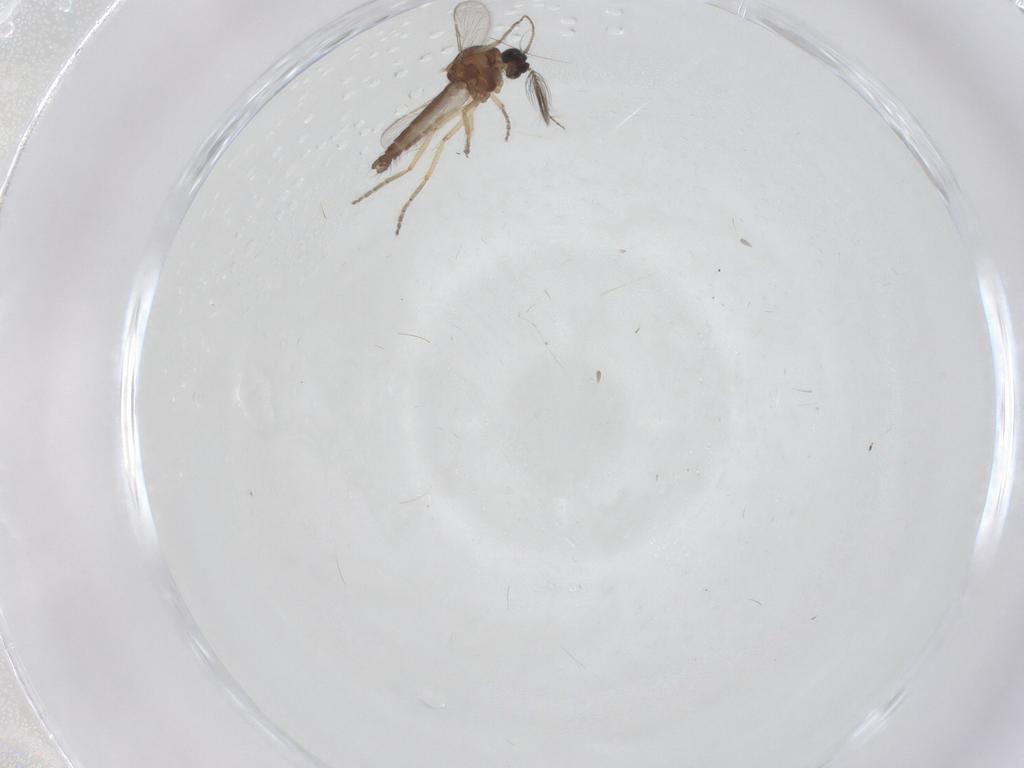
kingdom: Animalia
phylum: Arthropoda
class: Insecta
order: Diptera
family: Ceratopogonidae
